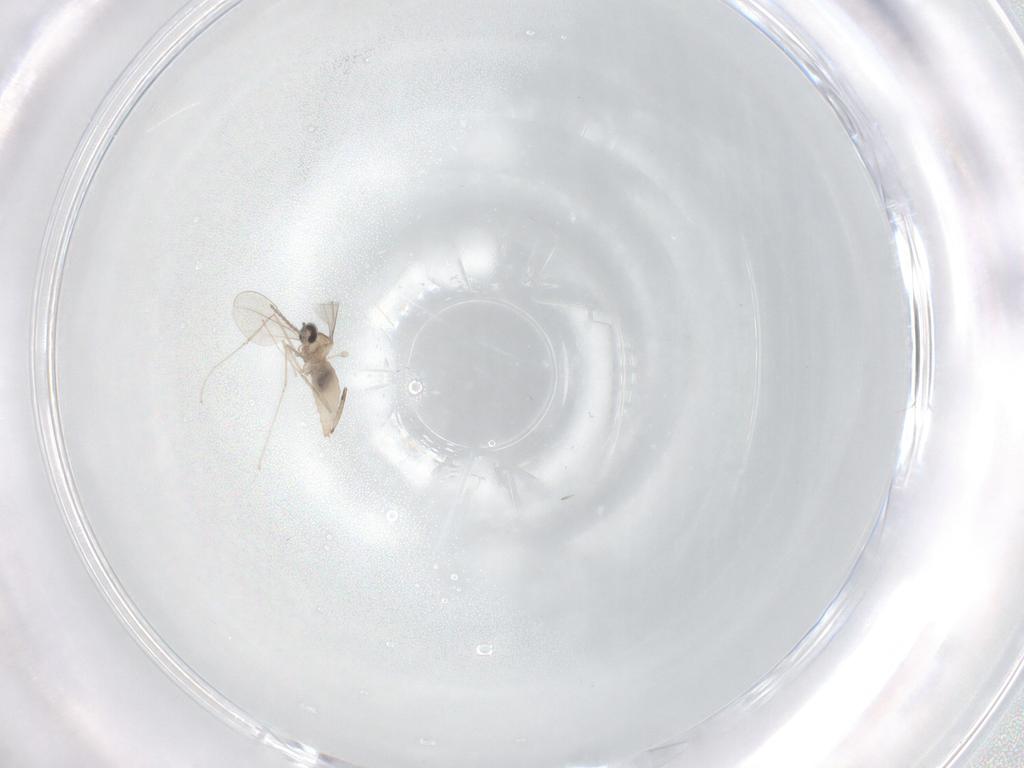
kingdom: Animalia
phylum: Arthropoda
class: Insecta
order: Diptera
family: Cecidomyiidae
